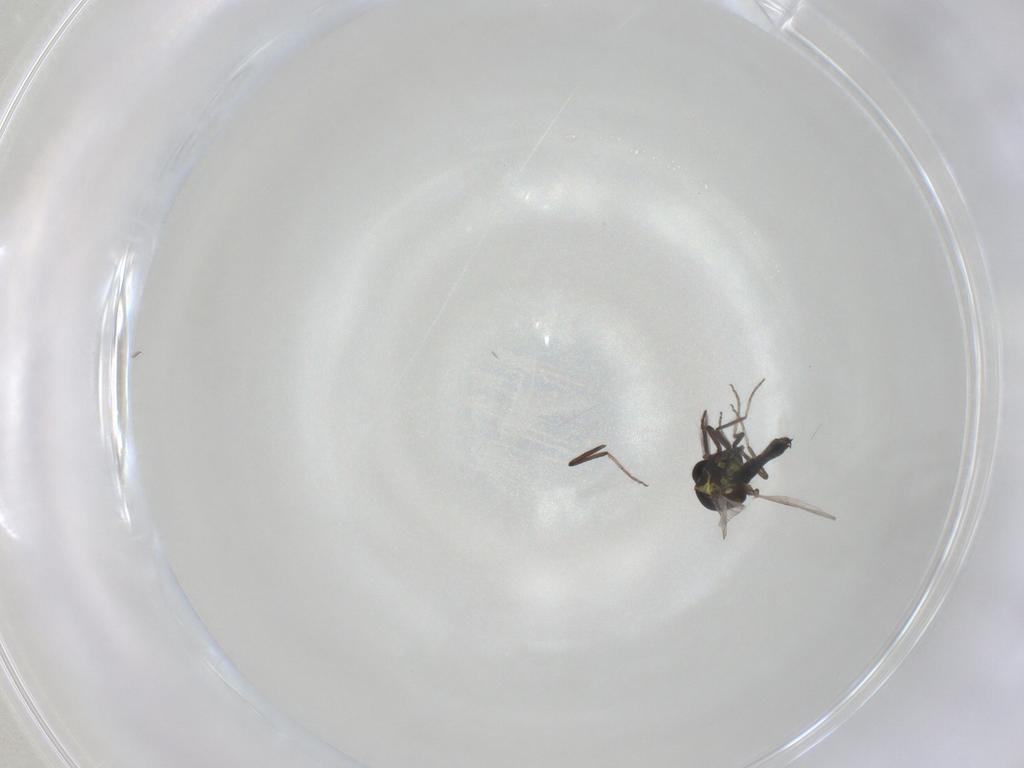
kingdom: Animalia
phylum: Arthropoda
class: Insecta
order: Diptera
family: Ceratopogonidae
